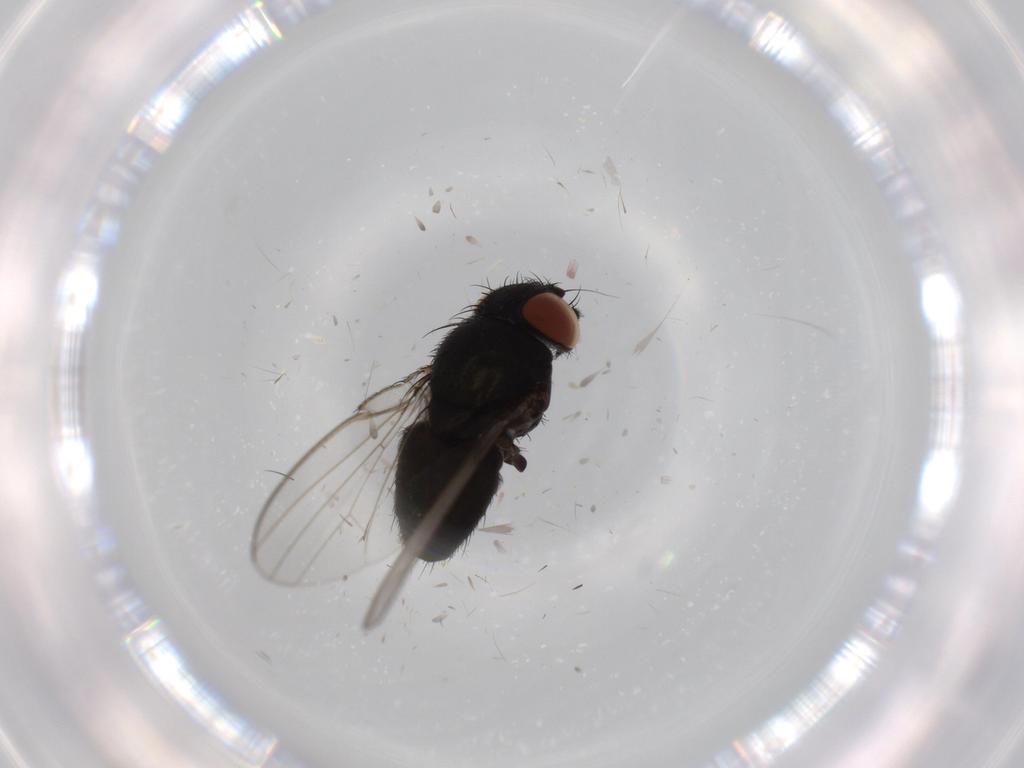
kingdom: Animalia
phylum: Arthropoda
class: Insecta
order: Diptera
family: Milichiidae
